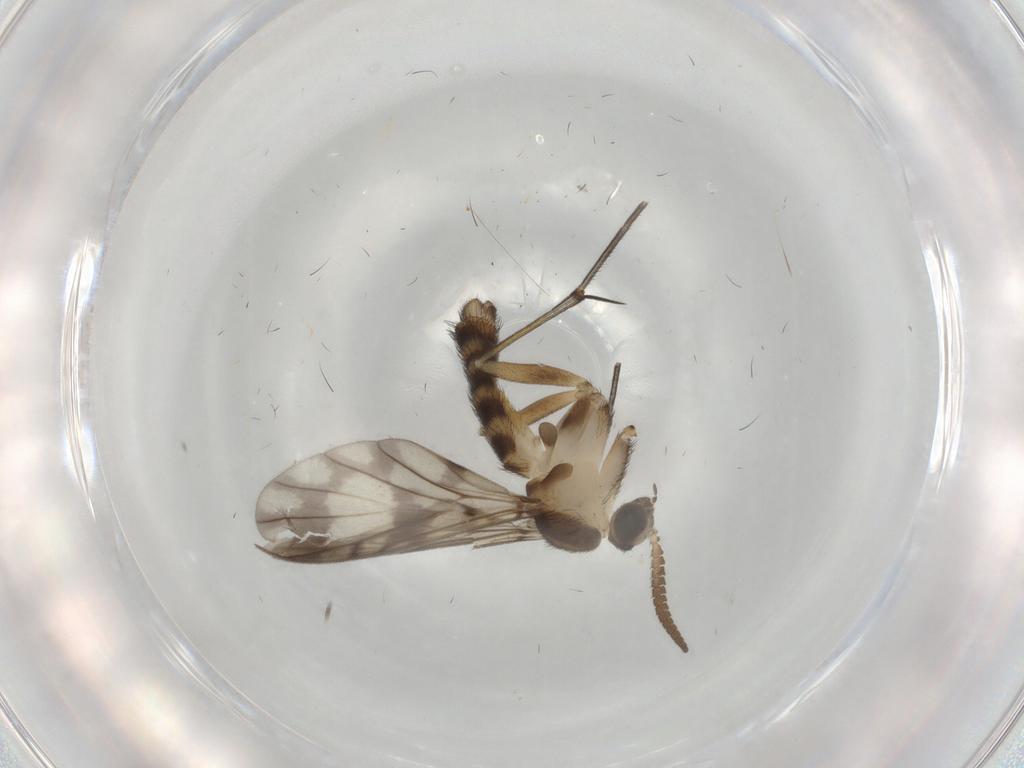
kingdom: Animalia
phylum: Arthropoda
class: Insecta
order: Diptera
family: Keroplatidae
